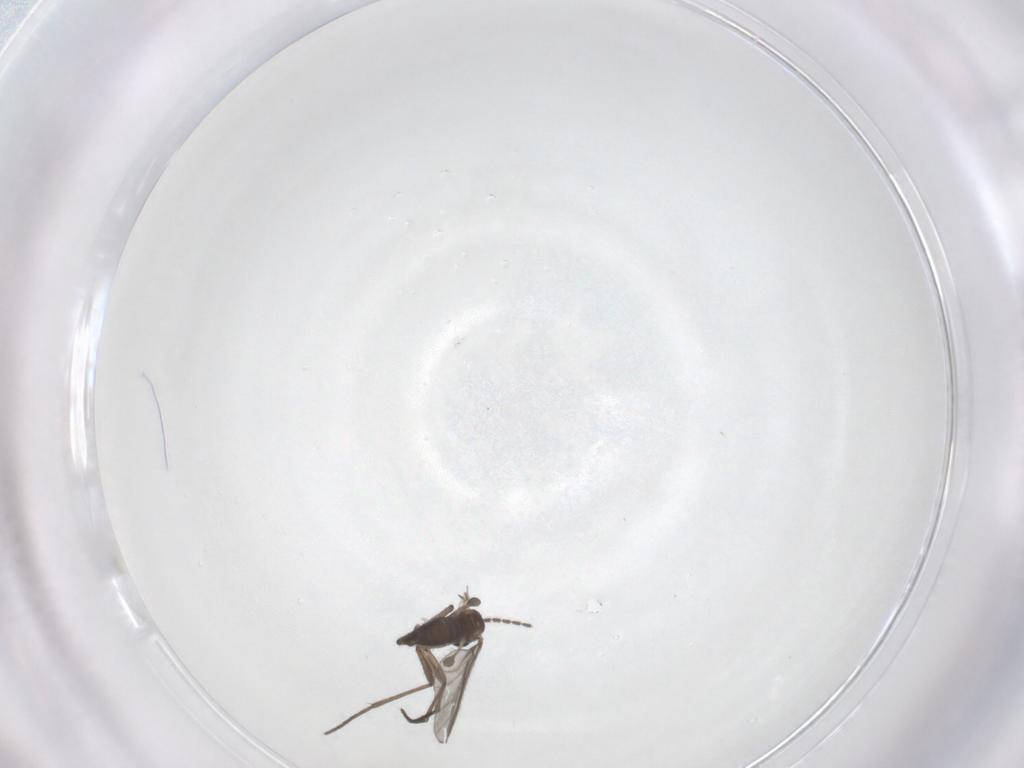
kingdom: Animalia
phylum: Arthropoda
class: Insecta
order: Diptera
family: Sciaridae
